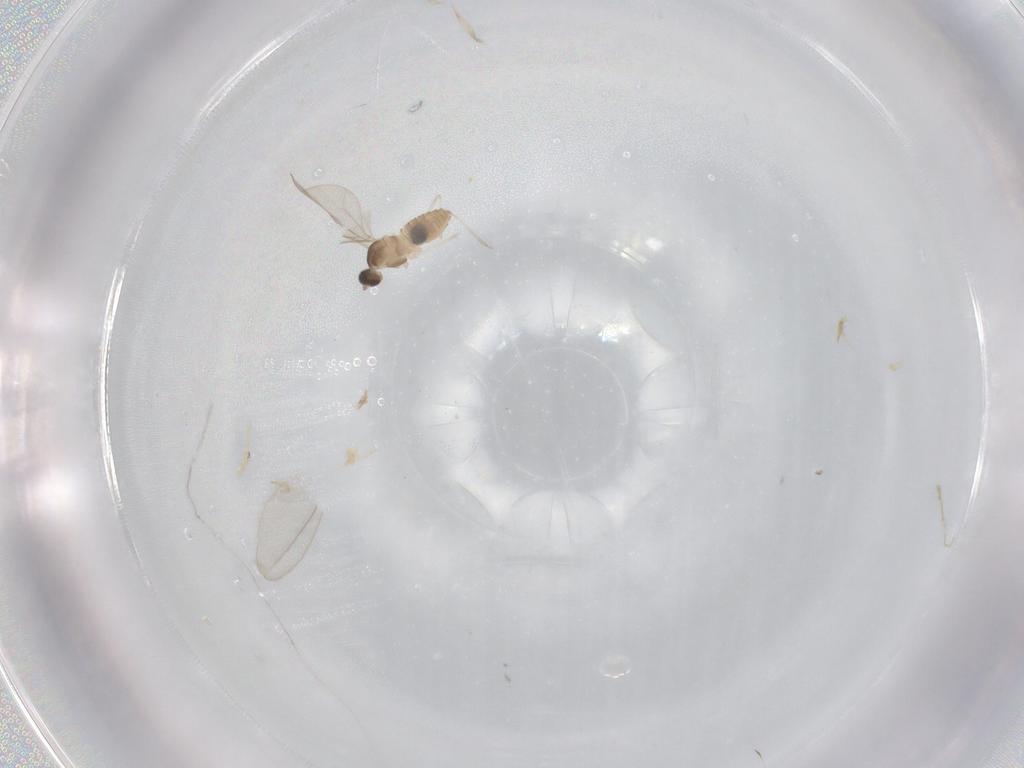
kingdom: Animalia
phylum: Arthropoda
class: Insecta
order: Diptera
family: Cecidomyiidae
